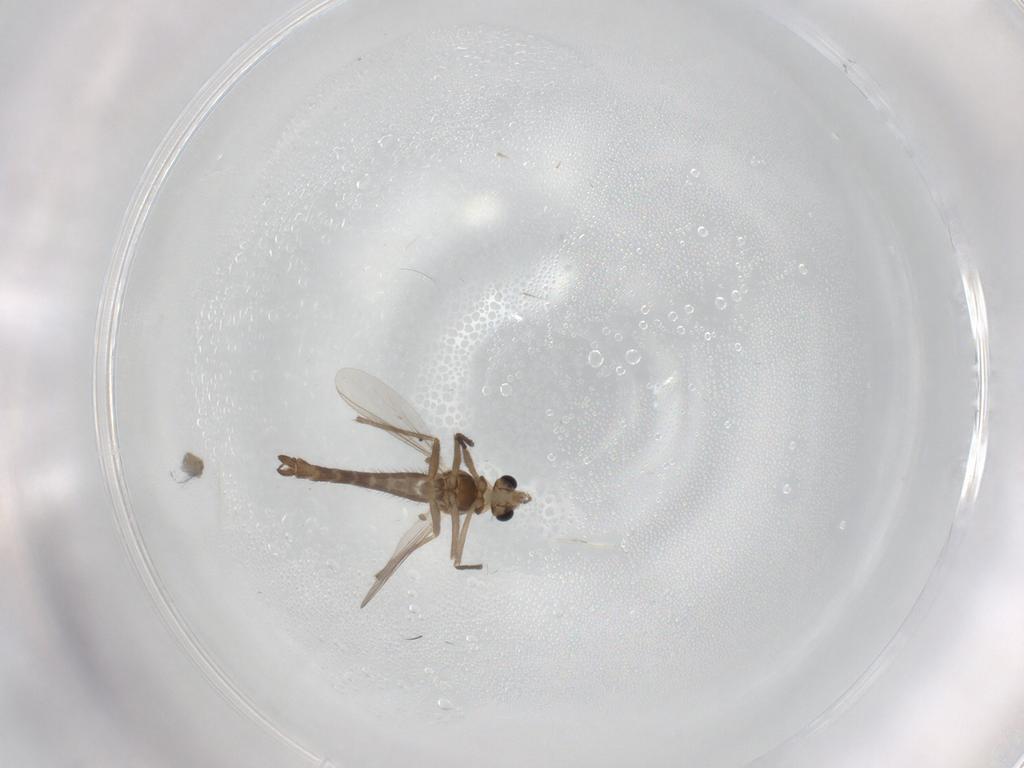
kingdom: Animalia
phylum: Arthropoda
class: Insecta
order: Diptera
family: Chironomidae
